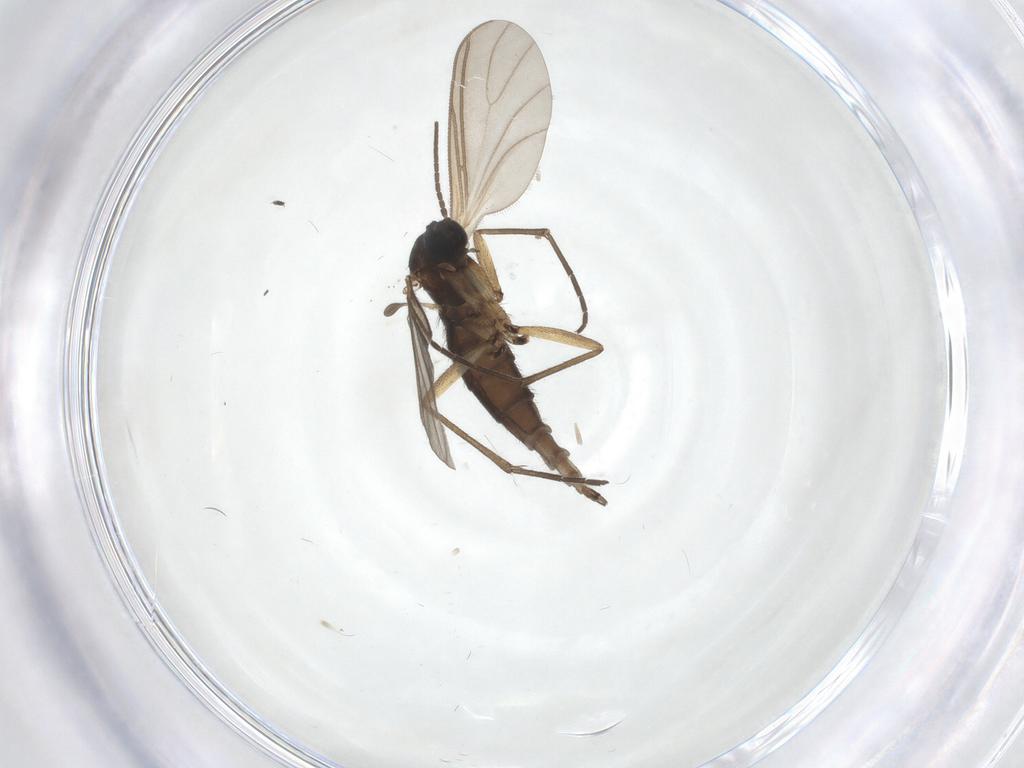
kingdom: Animalia
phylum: Arthropoda
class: Insecta
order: Diptera
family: Sciaridae
